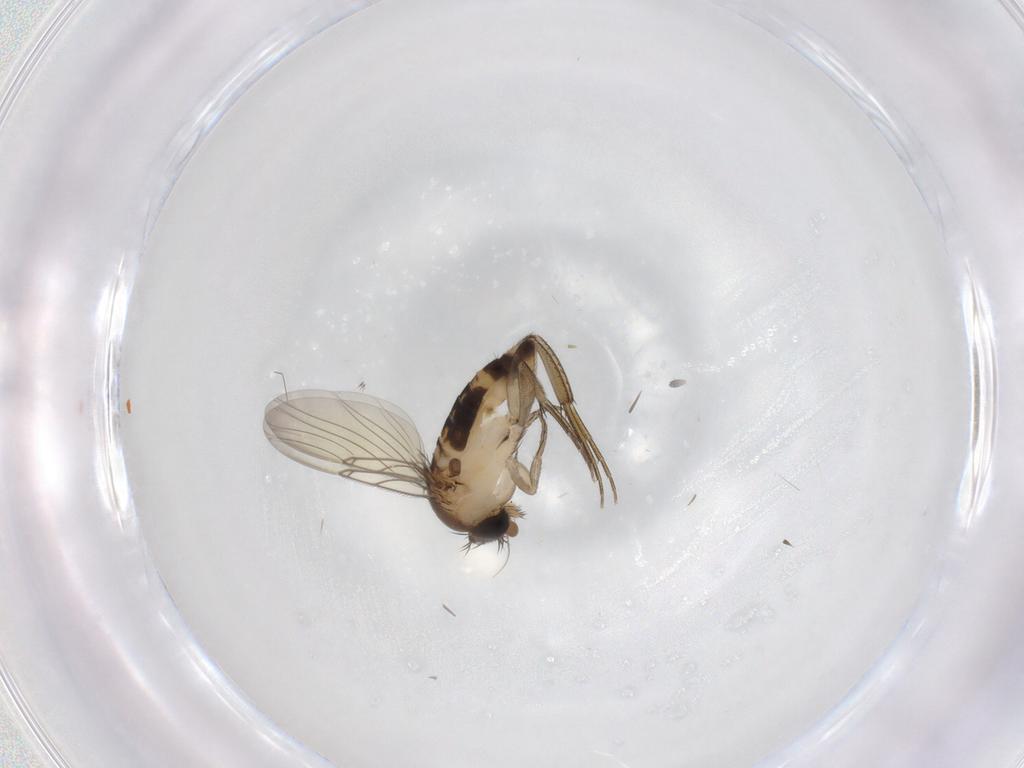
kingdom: Animalia
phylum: Arthropoda
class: Insecta
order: Diptera
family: Phoridae
